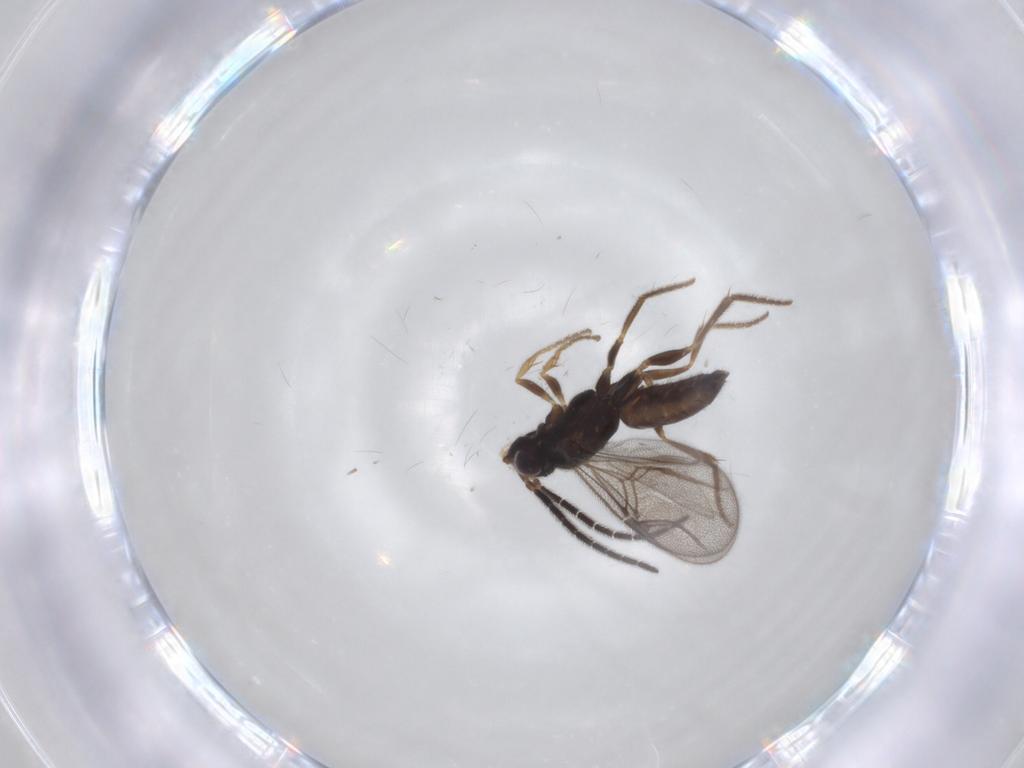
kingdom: Animalia
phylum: Arthropoda
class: Insecta
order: Hymenoptera
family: Dryinidae
